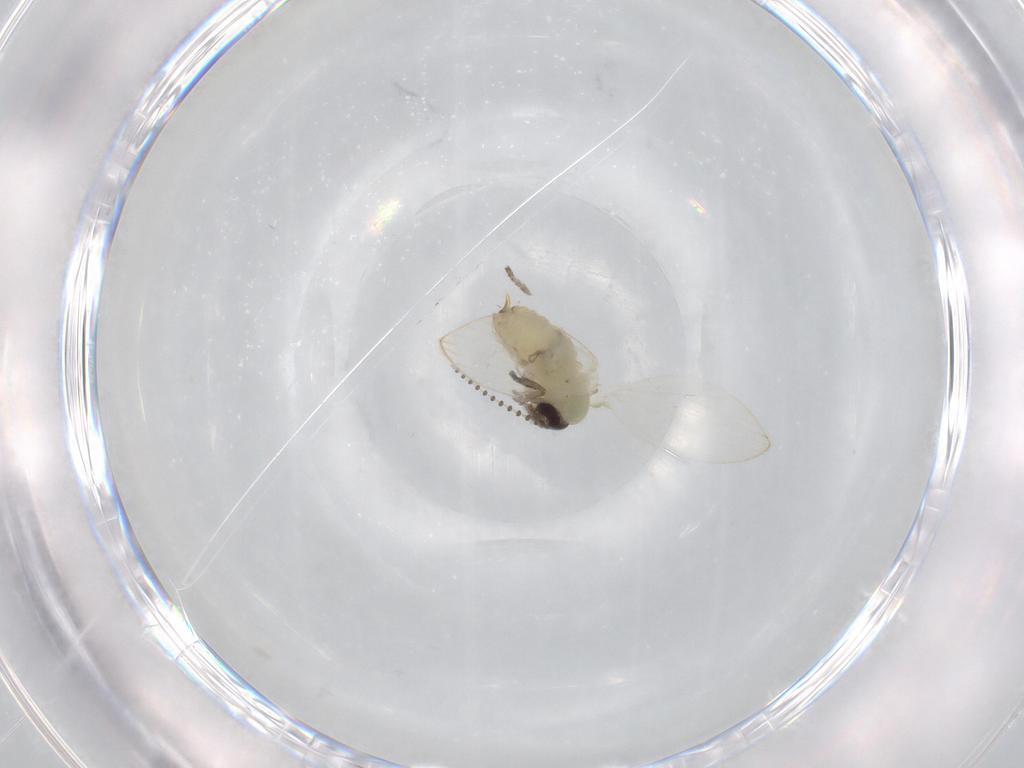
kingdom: Animalia
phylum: Arthropoda
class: Insecta
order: Diptera
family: Psychodidae
